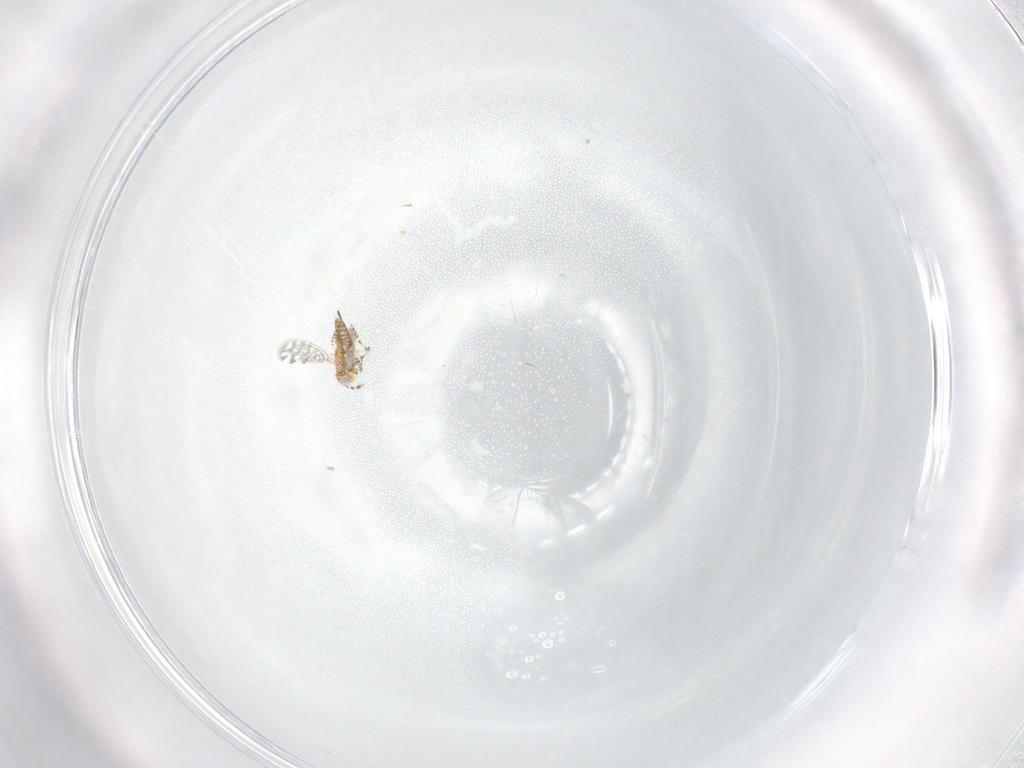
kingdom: Animalia
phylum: Arthropoda
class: Insecta
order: Hymenoptera
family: Aphelinidae
